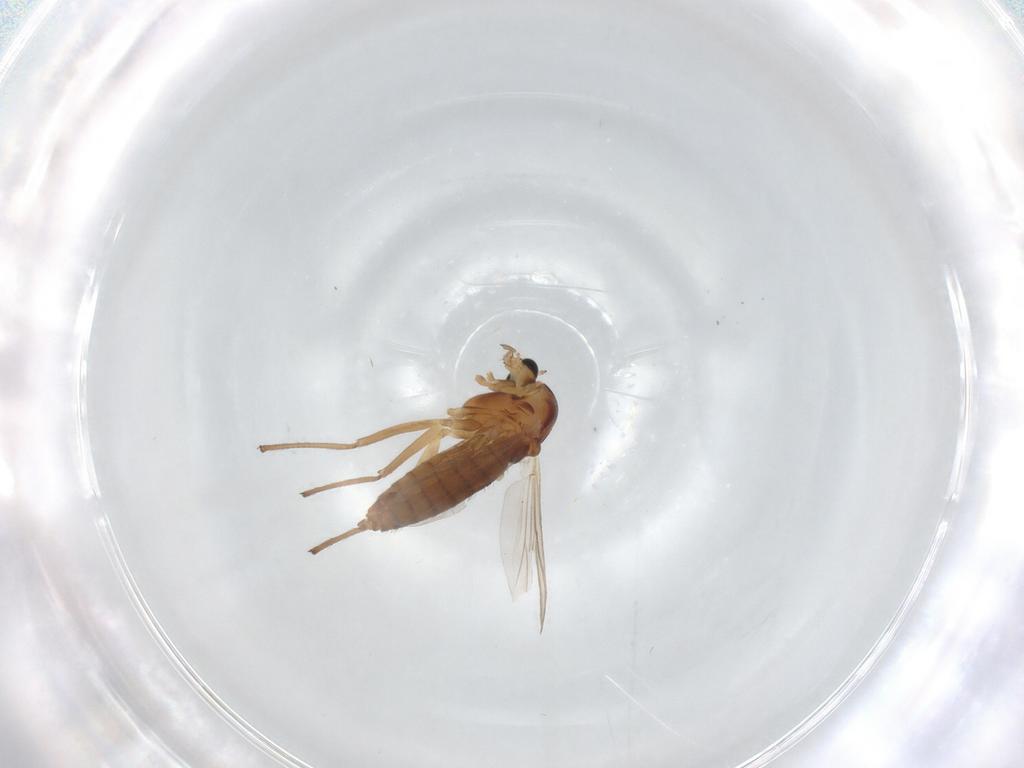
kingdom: Animalia
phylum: Arthropoda
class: Insecta
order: Diptera
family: Chironomidae
